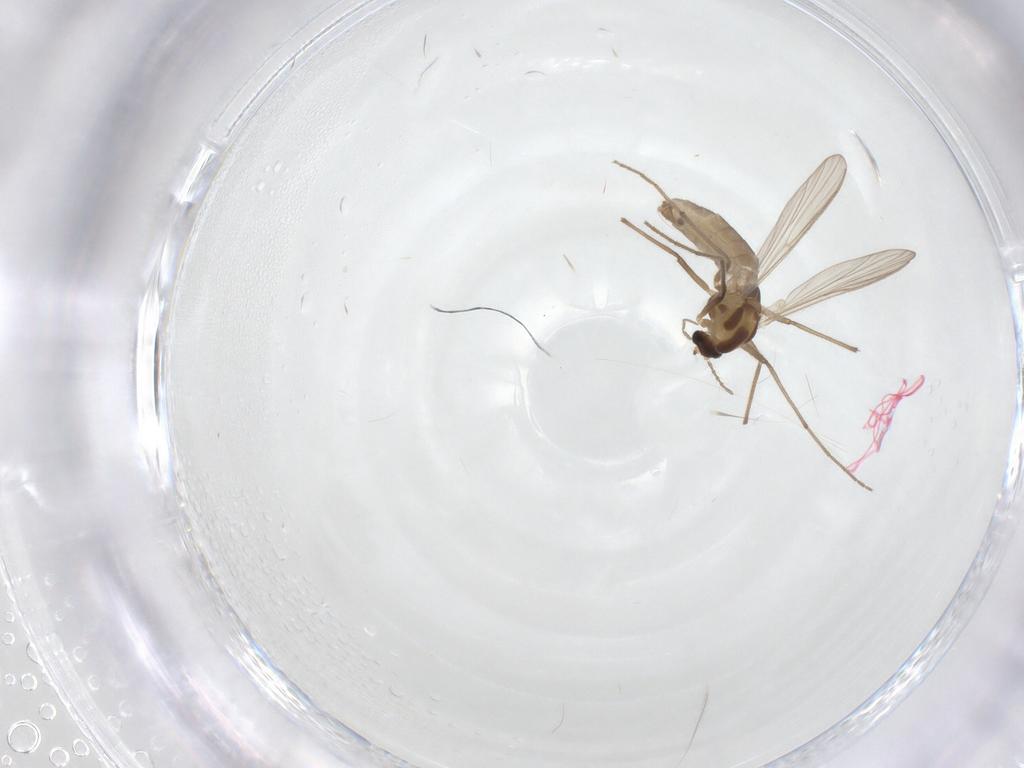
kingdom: Animalia
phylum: Arthropoda
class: Insecta
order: Diptera
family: Chironomidae
